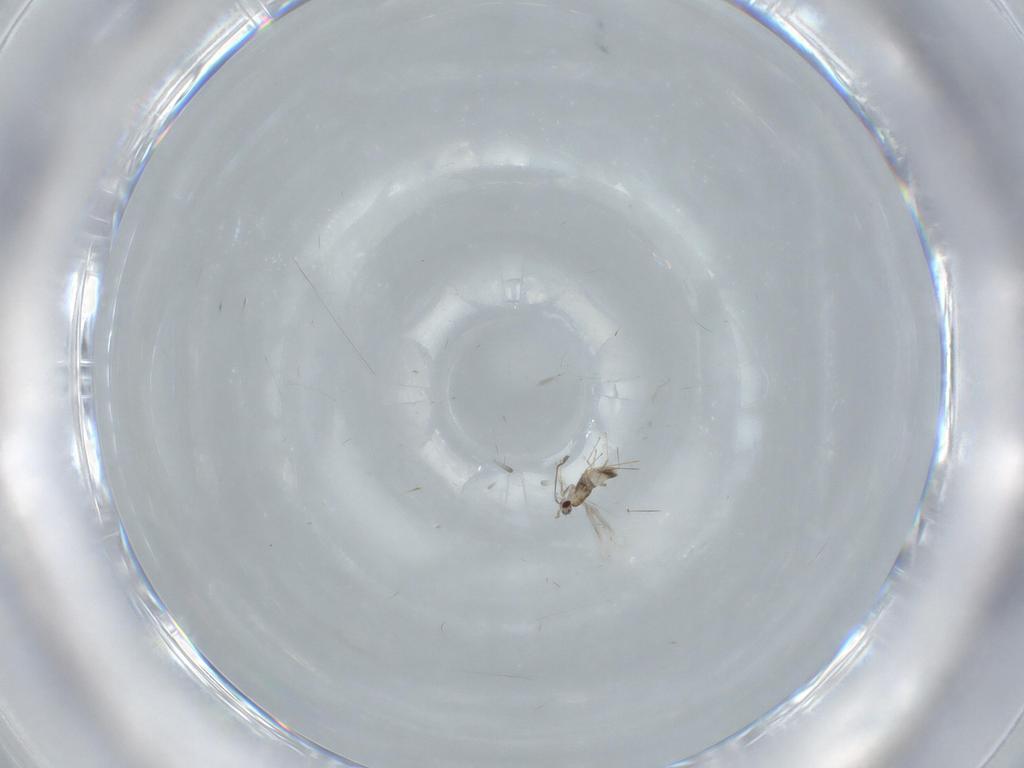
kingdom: Animalia
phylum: Arthropoda
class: Insecta
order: Hymenoptera
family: Mymaridae
